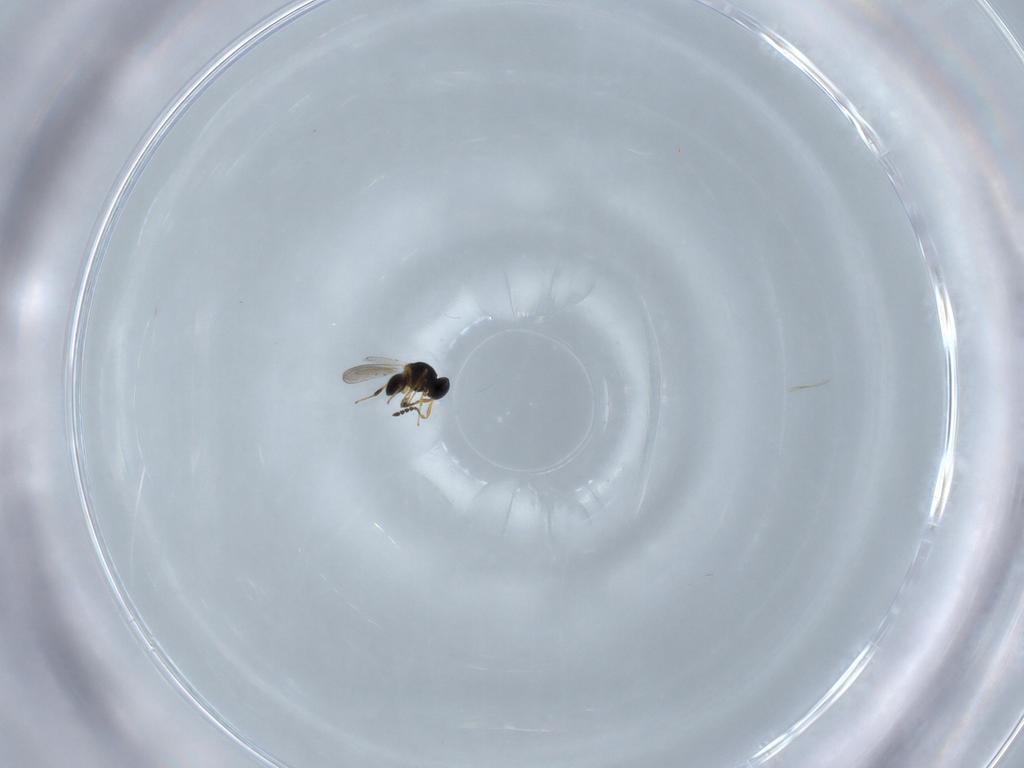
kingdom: Animalia
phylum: Arthropoda
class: Insecta
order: Hymenoptera
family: Platygastridae
